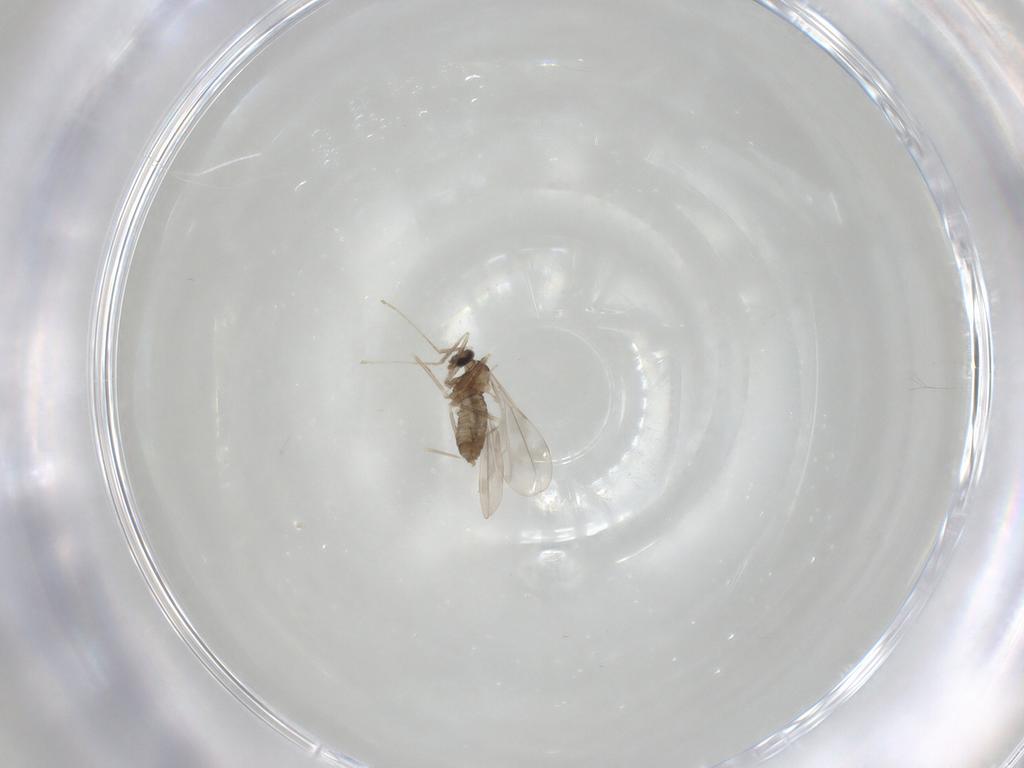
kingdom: Animalia
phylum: Arthropoda
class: Insecta
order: Diptera
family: Cecidomyiidae
